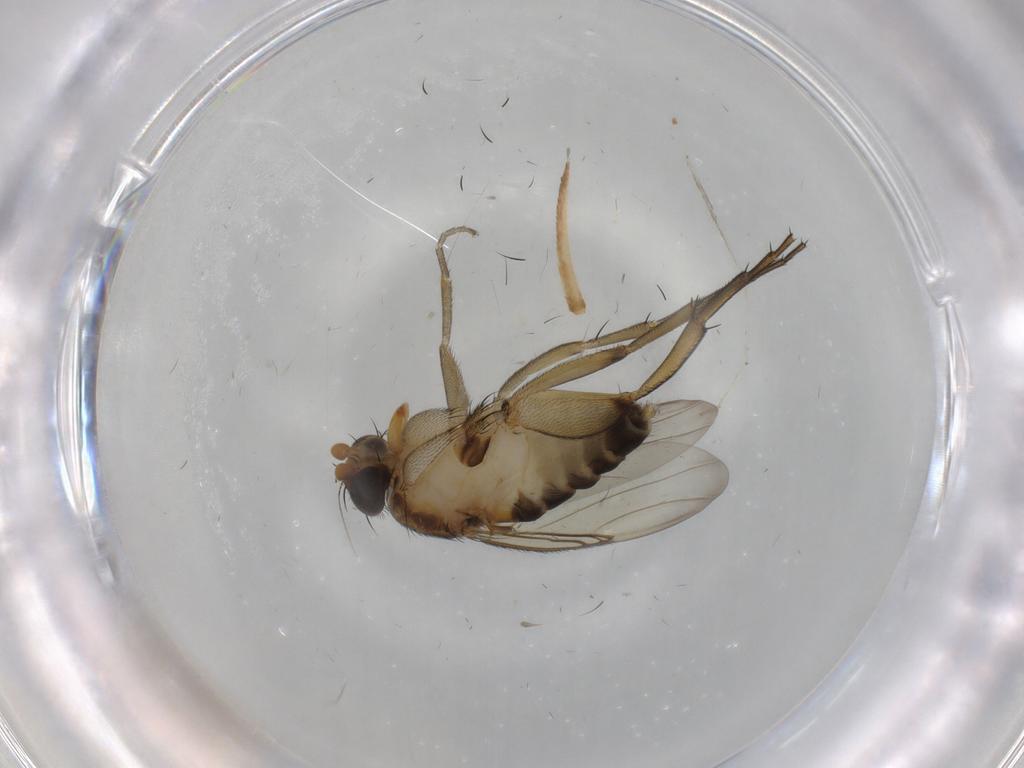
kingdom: Animalia
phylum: Arthropoda
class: Insecta
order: Diptera
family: Phoridae
